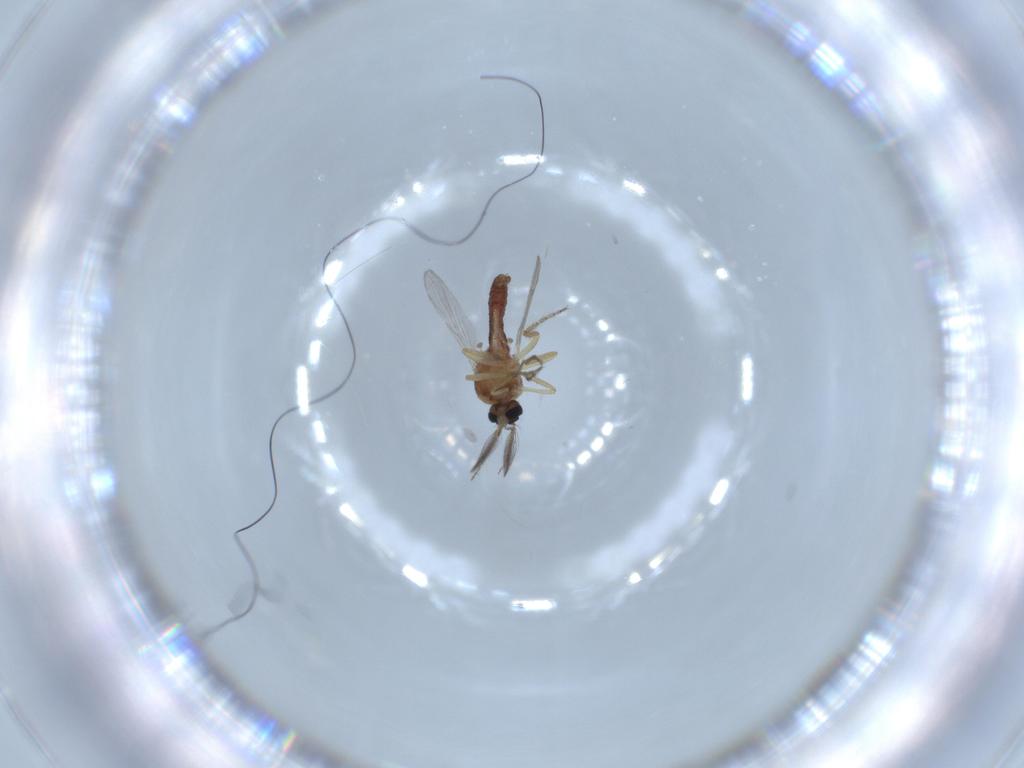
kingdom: Animalia
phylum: Arthropoda
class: Insecta
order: Diptera
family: Ceratopogonidae
